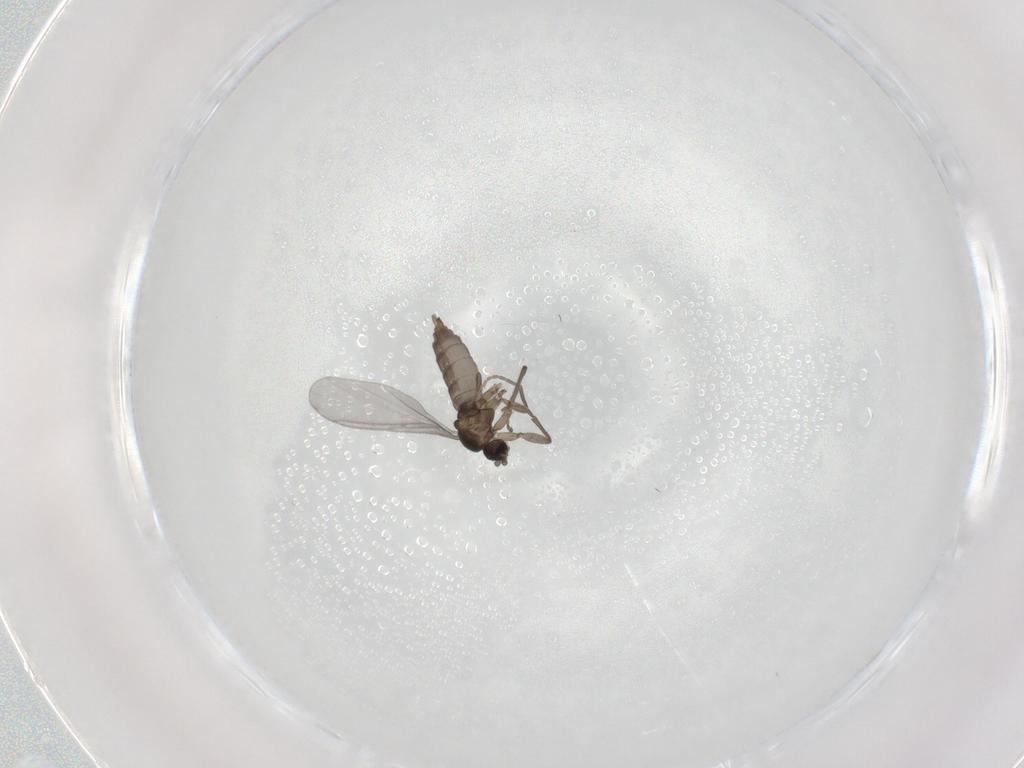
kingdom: Animalia
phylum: Arthropoda
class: Insecta
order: Diptera
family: Sciaridae
